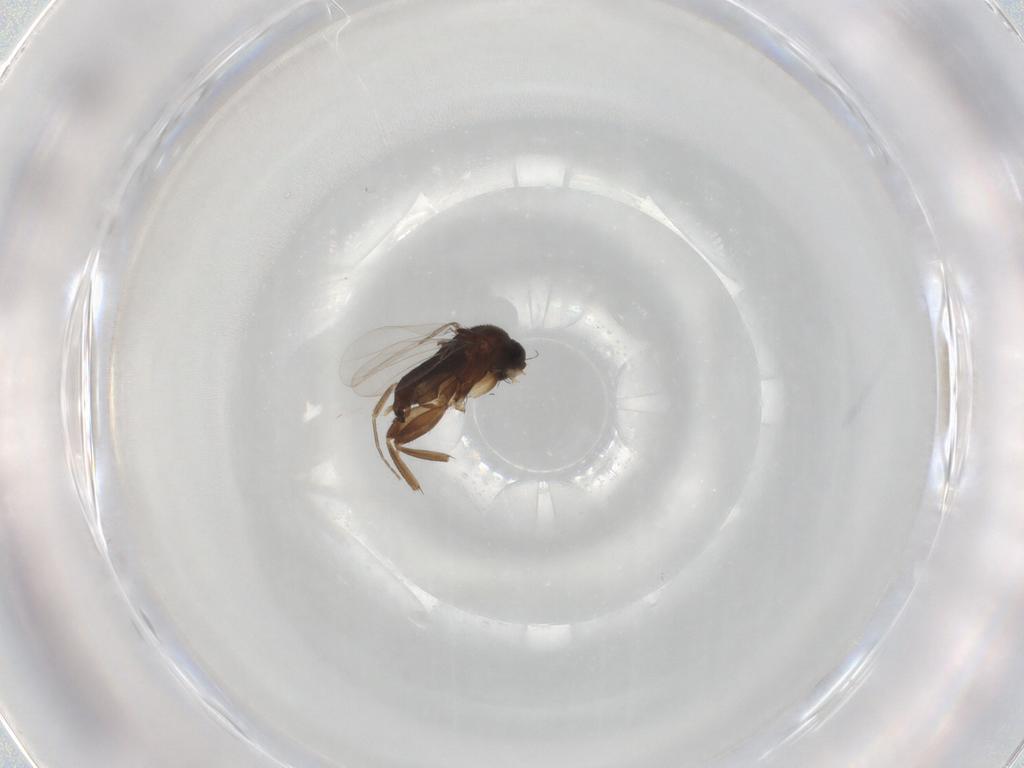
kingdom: Animalia
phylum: Arthropoda
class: Insecta
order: Diptera
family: Phoridae
